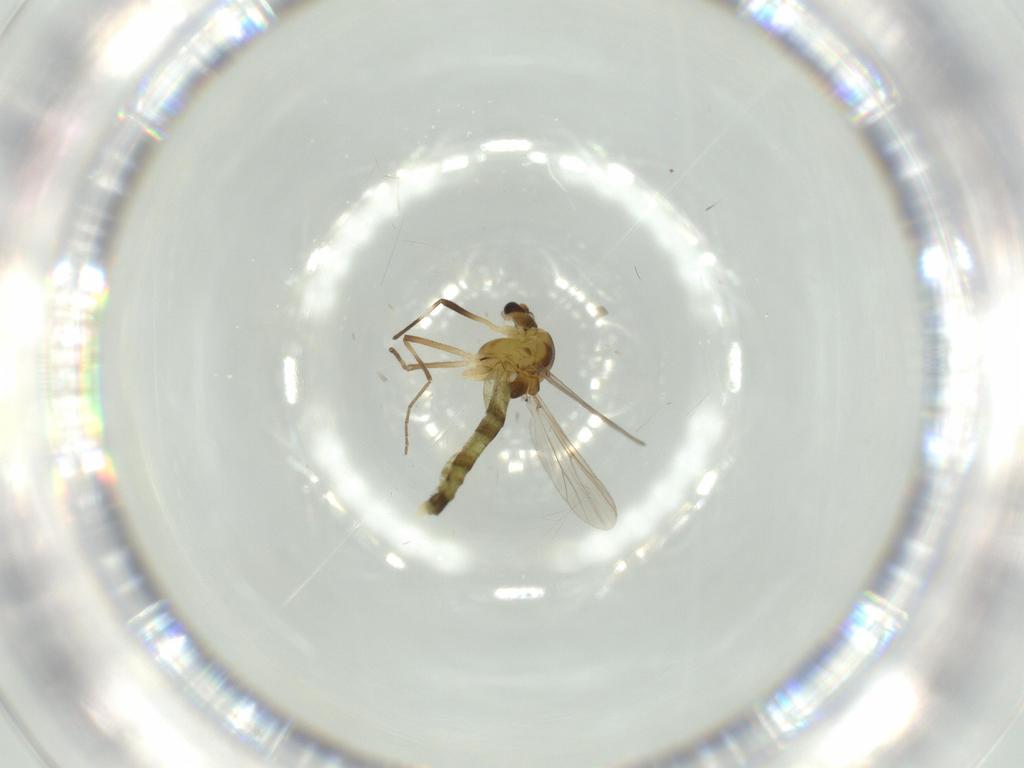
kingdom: Animalia
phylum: Arthropoda
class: Insecta
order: Diptera
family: Chironomidae
